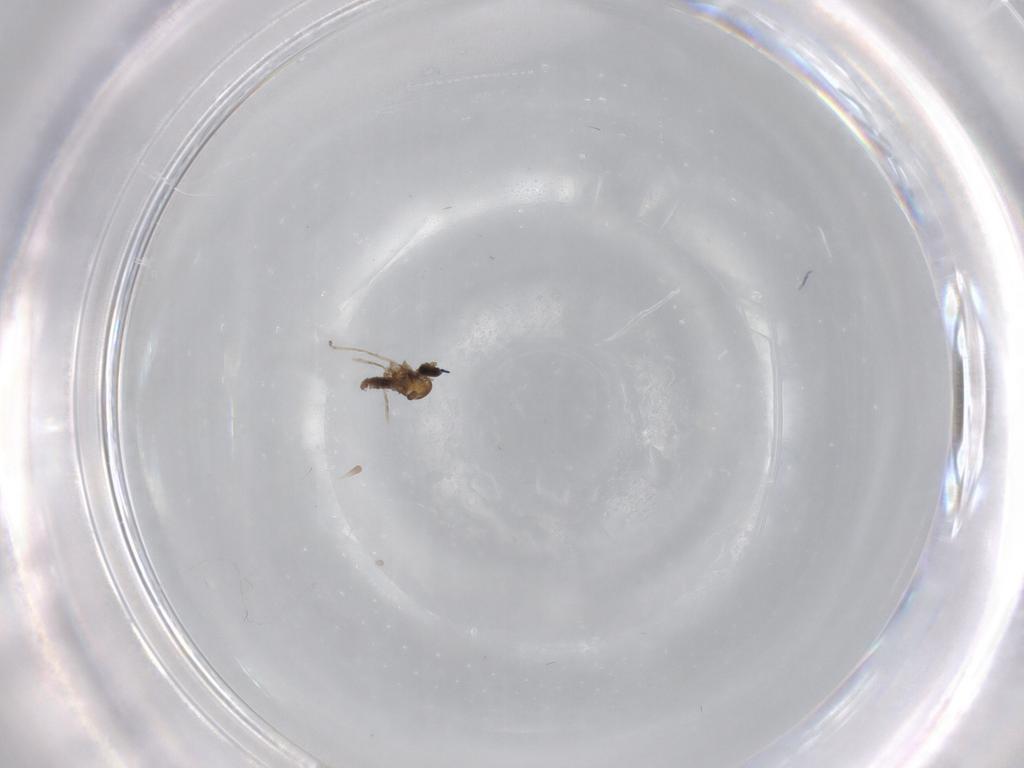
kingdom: Animalia
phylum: Arthropoda
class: Insecta
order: Diptera
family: Cecidomyiidae
